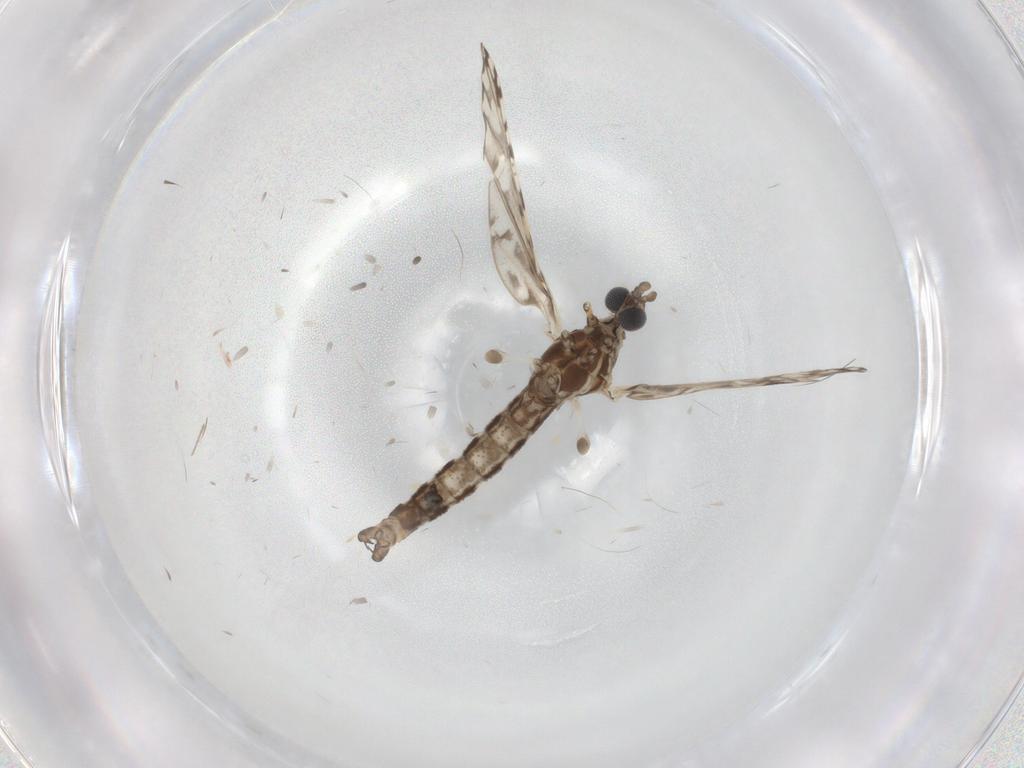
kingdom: Animalia
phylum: Arthropoda
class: Insecta
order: Diptera
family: Limoniidae
